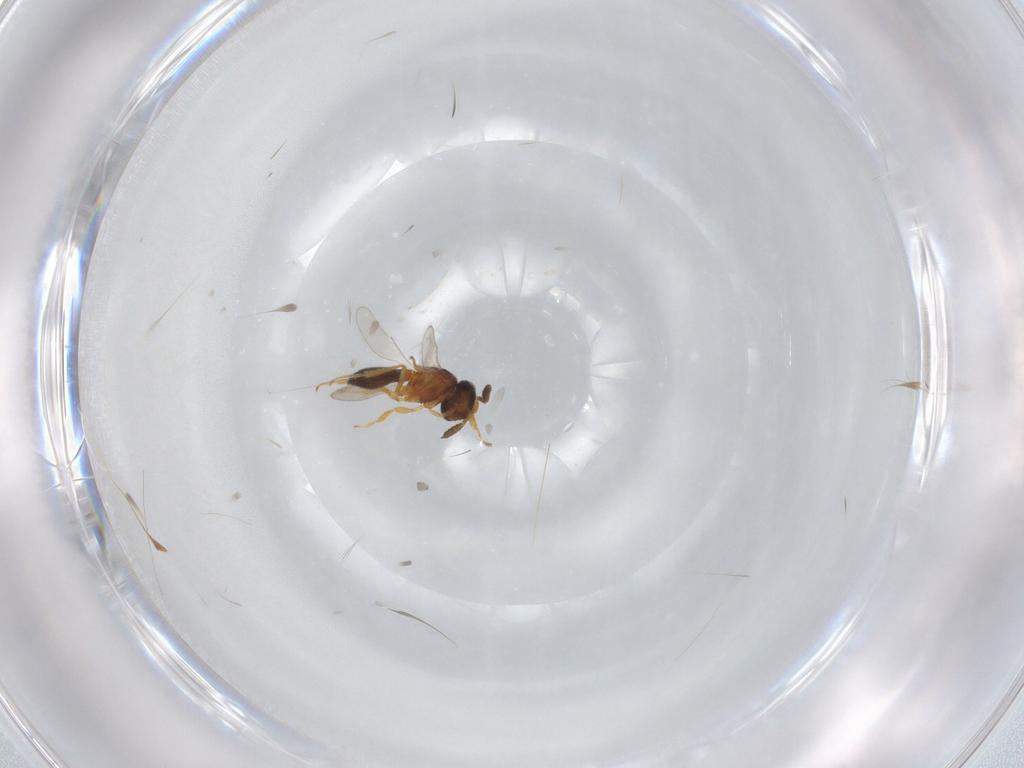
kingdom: Animalia
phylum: Arthropoda
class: Insecta
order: Hymenoptera
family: Scelionidae
